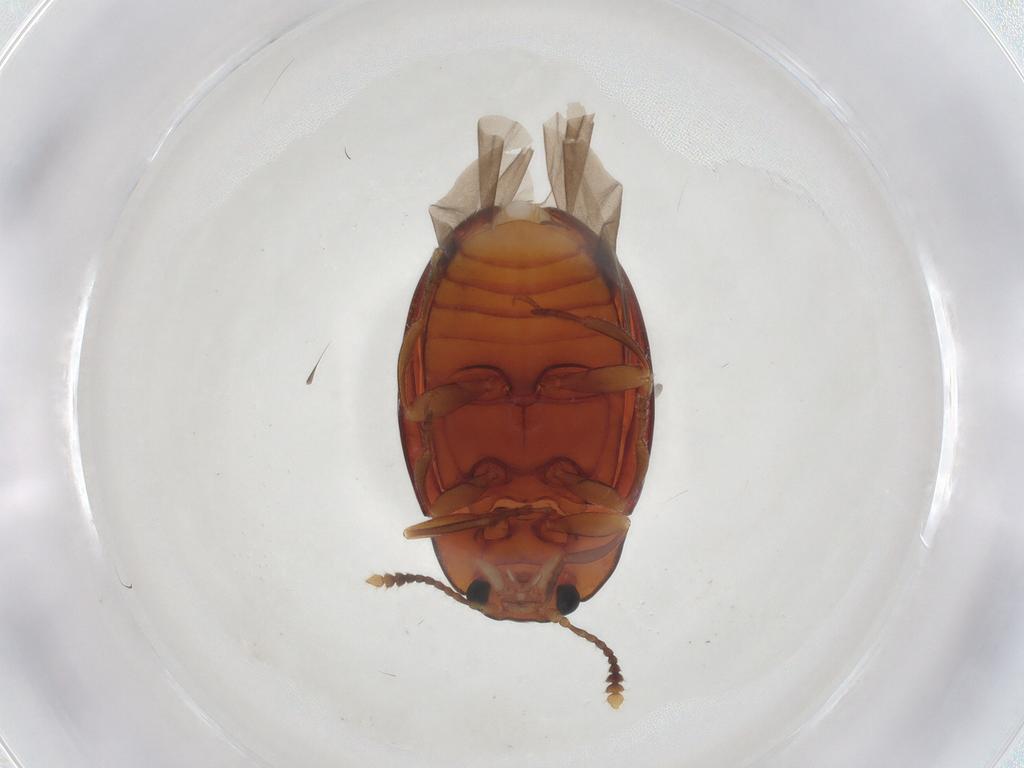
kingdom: Animalia
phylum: Arthropoda
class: Insecta
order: Coleoptera
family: Erotylidae
